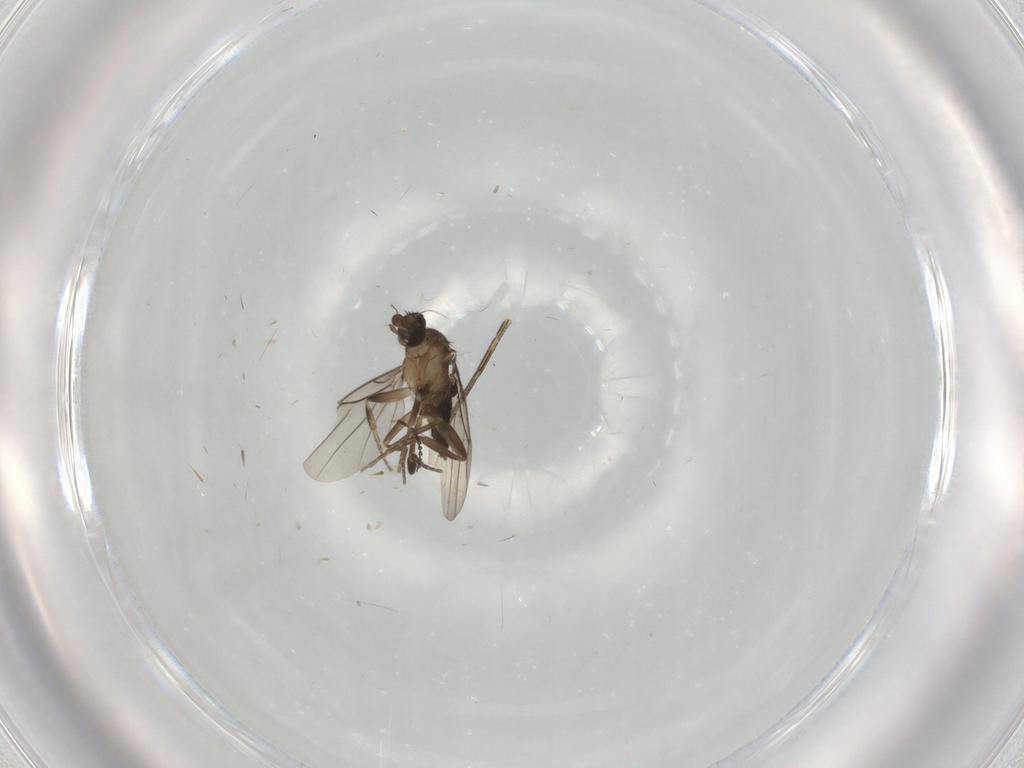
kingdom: Animalia
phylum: Arthropoda
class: Insecta
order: Diptera
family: Cecidomyiidae
